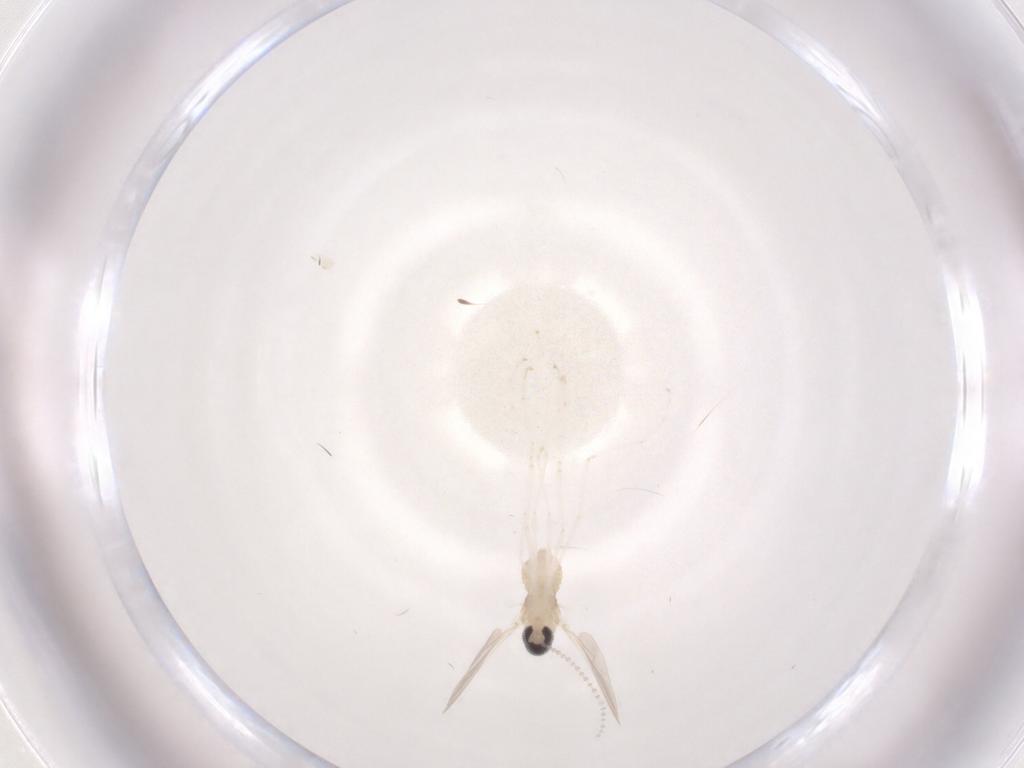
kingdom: Animalia
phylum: Arthropoda
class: Insecta
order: Diptera
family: Cecidomyiidae
